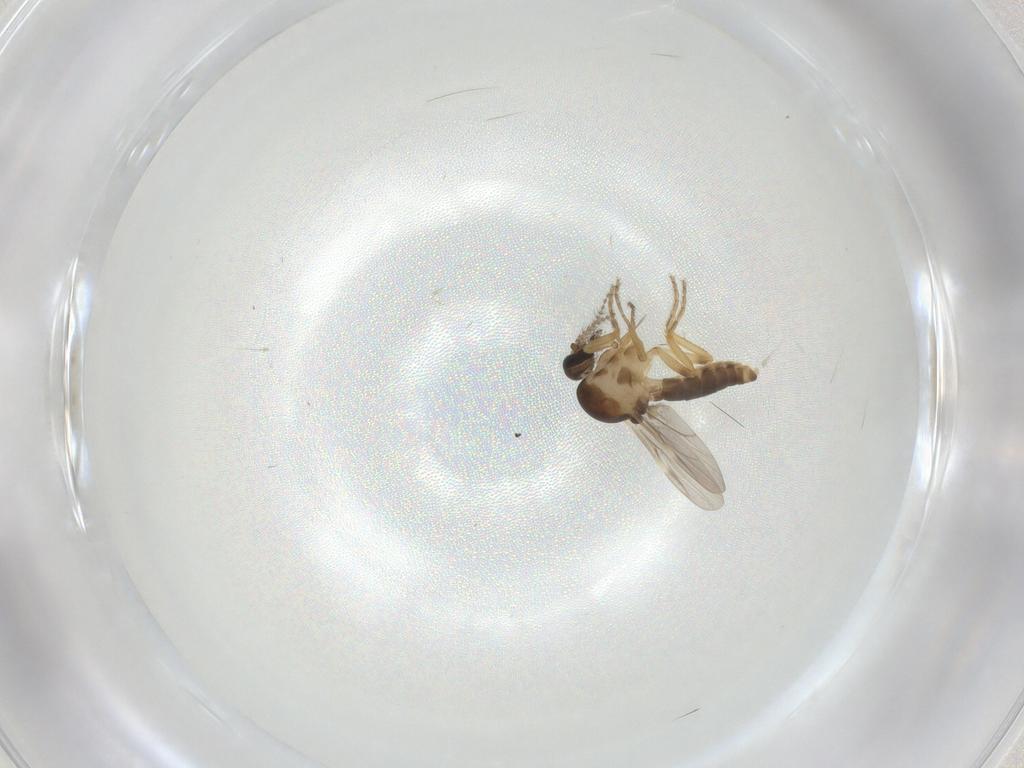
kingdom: Animalia
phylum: Arthropoda
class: Insecta
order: Diptera
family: Ceratopogonidae
